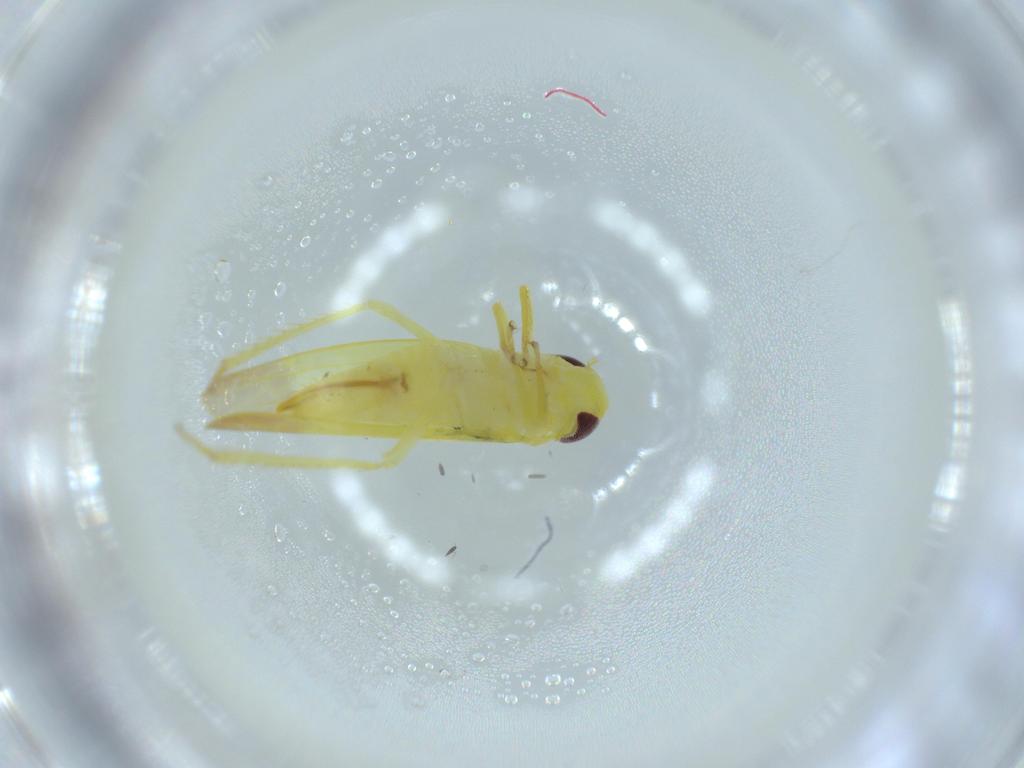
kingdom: Animalia
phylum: Arthropoda
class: Insecta
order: Hemiptera
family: Cicadellidae
